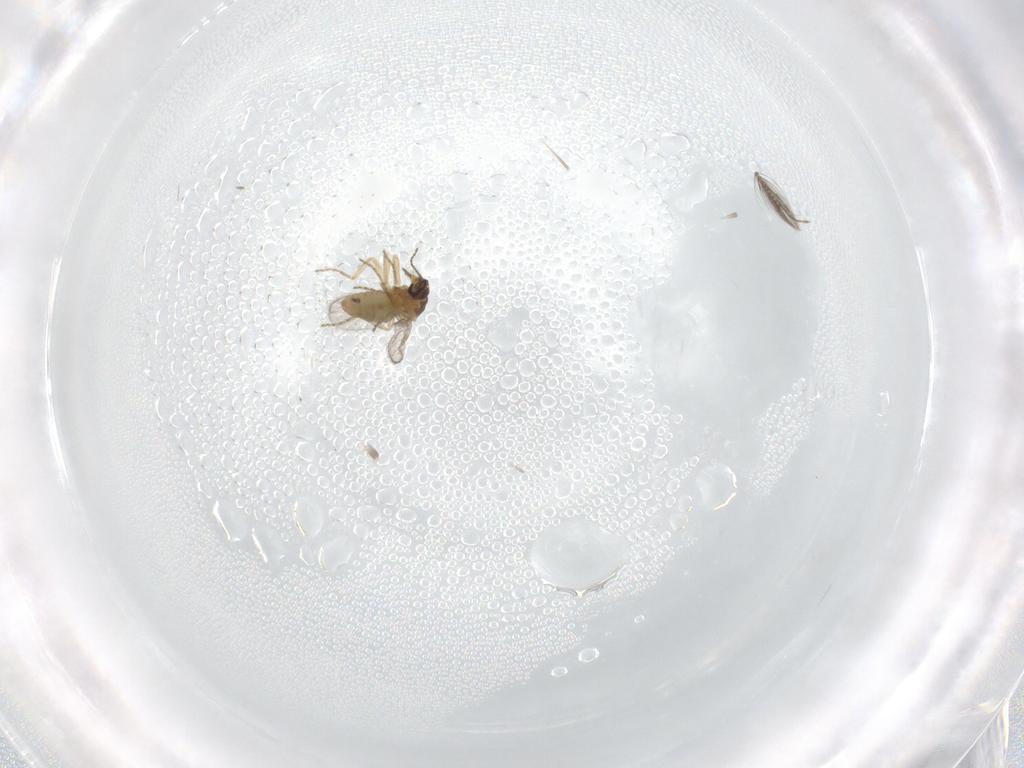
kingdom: Animalia
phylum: Arthropoda
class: Insecta
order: Diptera
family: Ceratopogonidae
